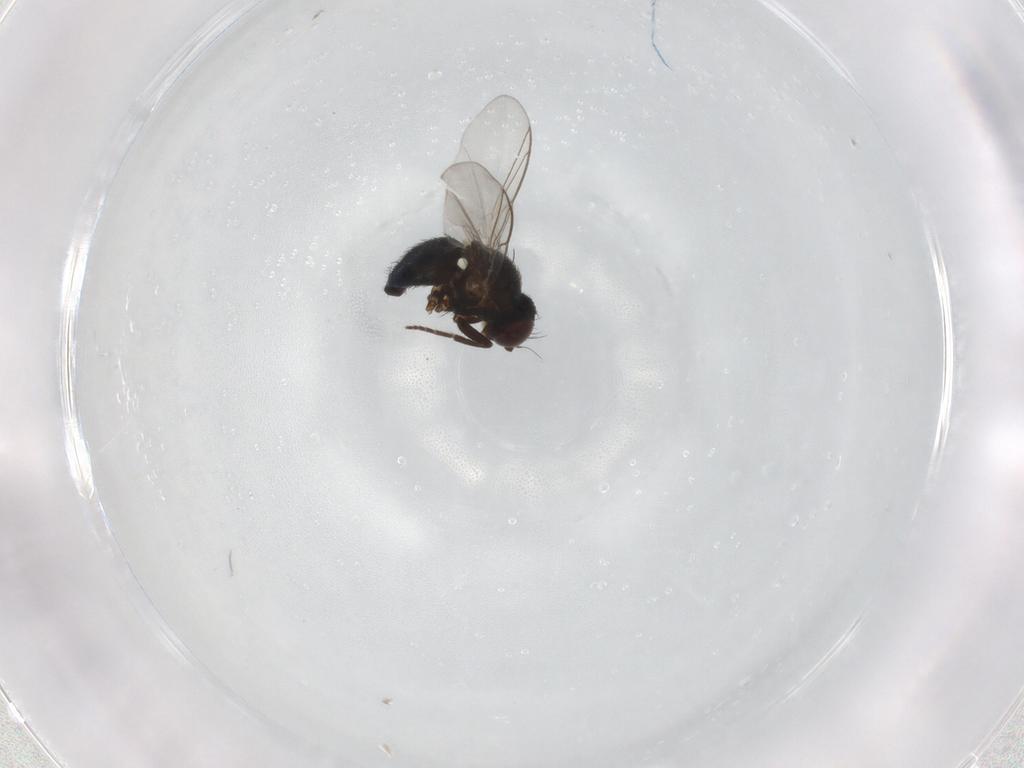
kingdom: Animalia
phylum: Arthropoda
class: Insecta
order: Diptera
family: Agromyzidae
